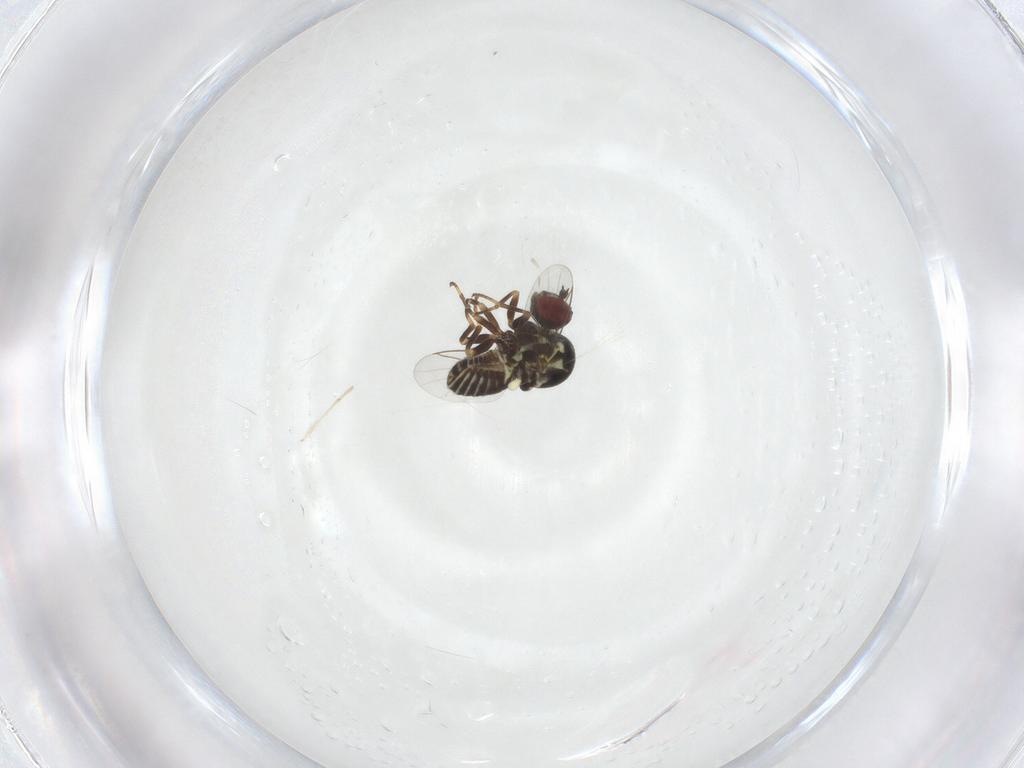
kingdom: Animalia
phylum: Arthropoda
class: Insecta
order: Diptera
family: Mythicomyiidae
